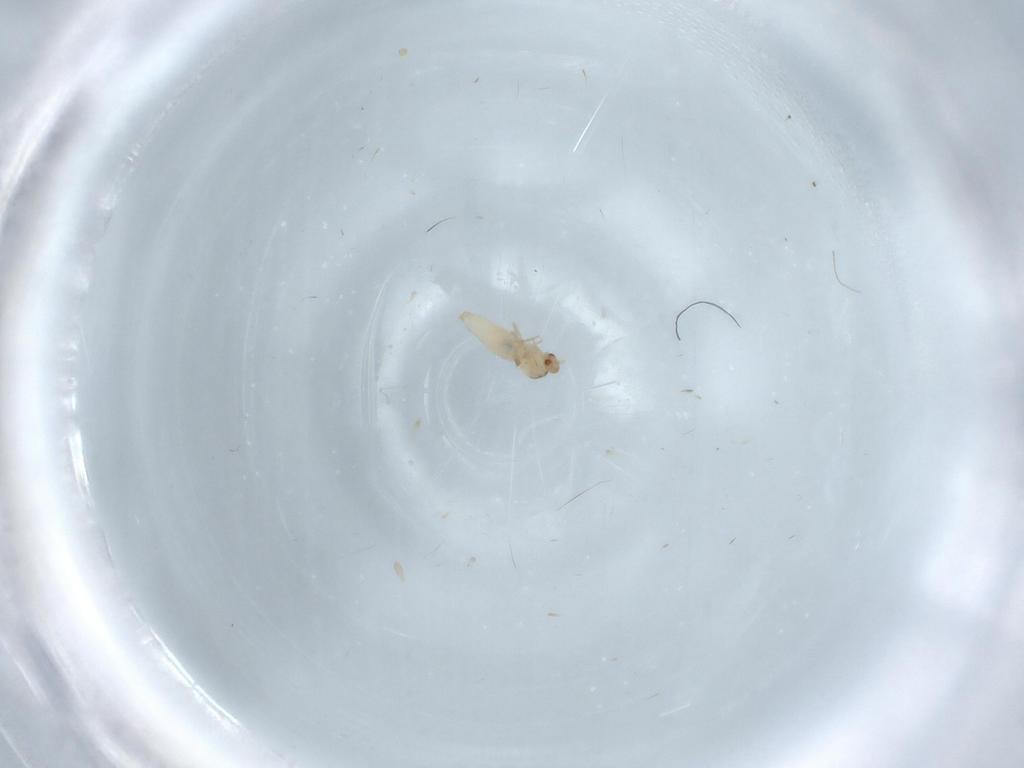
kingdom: Animalia
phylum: Arthropoda
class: Insecta
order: Diptera
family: Cecidomyiidae
